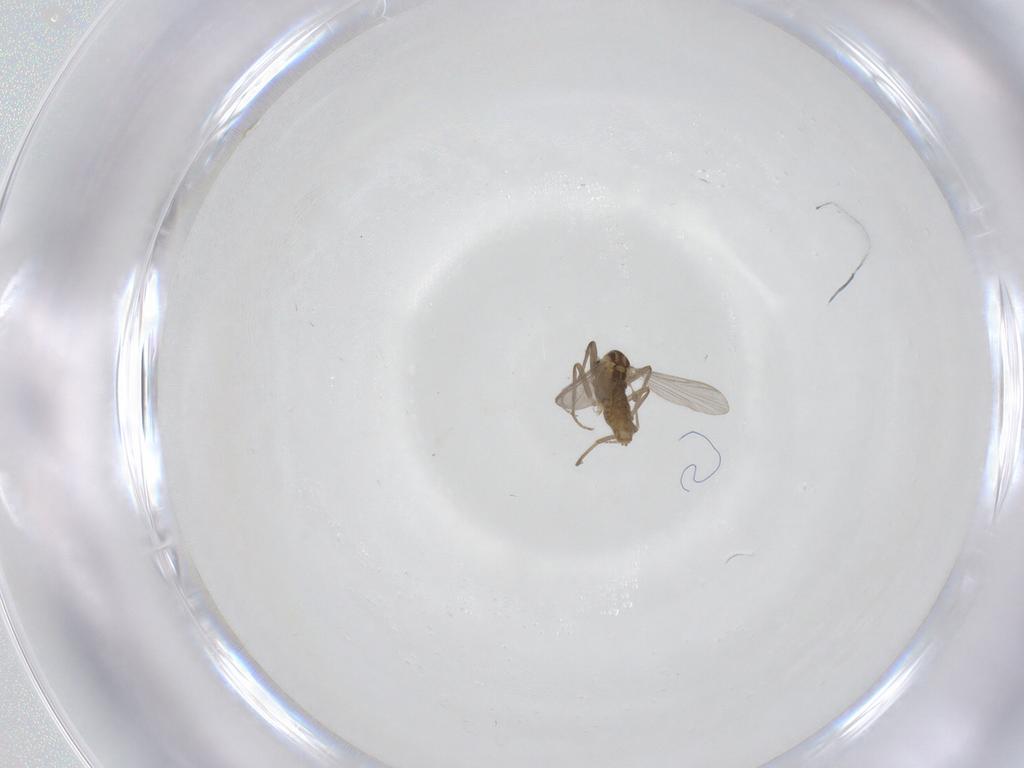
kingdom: Animalia
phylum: Arthropoda
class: Insecta
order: Diptera
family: Chironomidae
